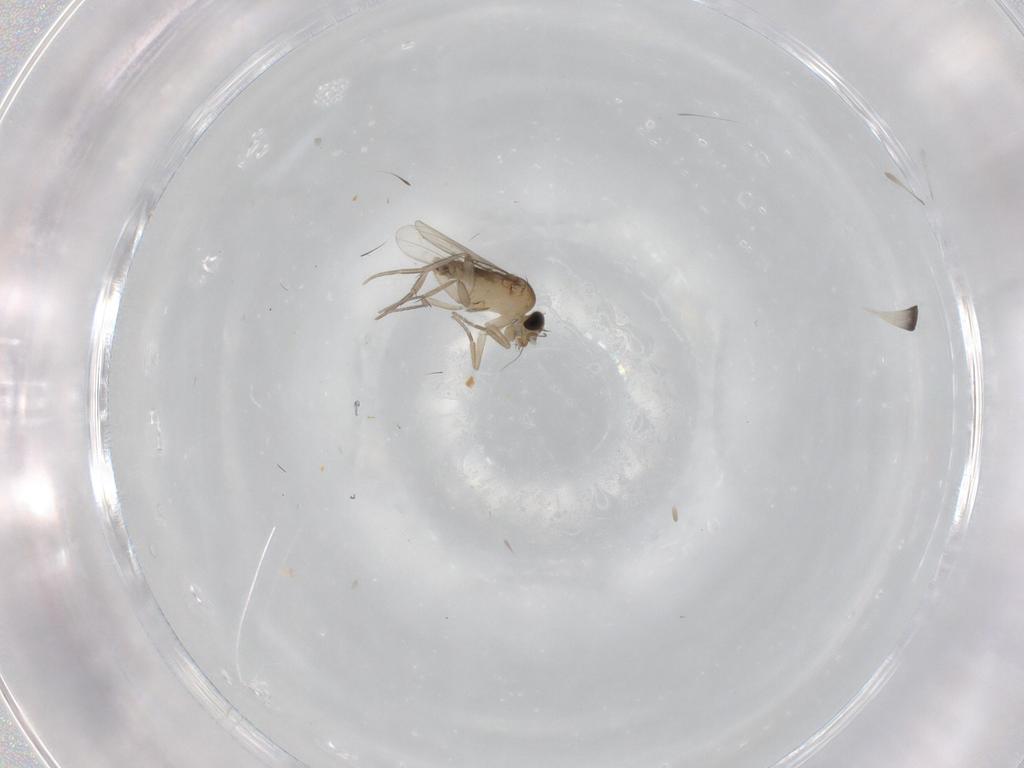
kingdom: Animalia
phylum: Arthropoda
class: Insecta
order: Diptera
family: Phoridae
